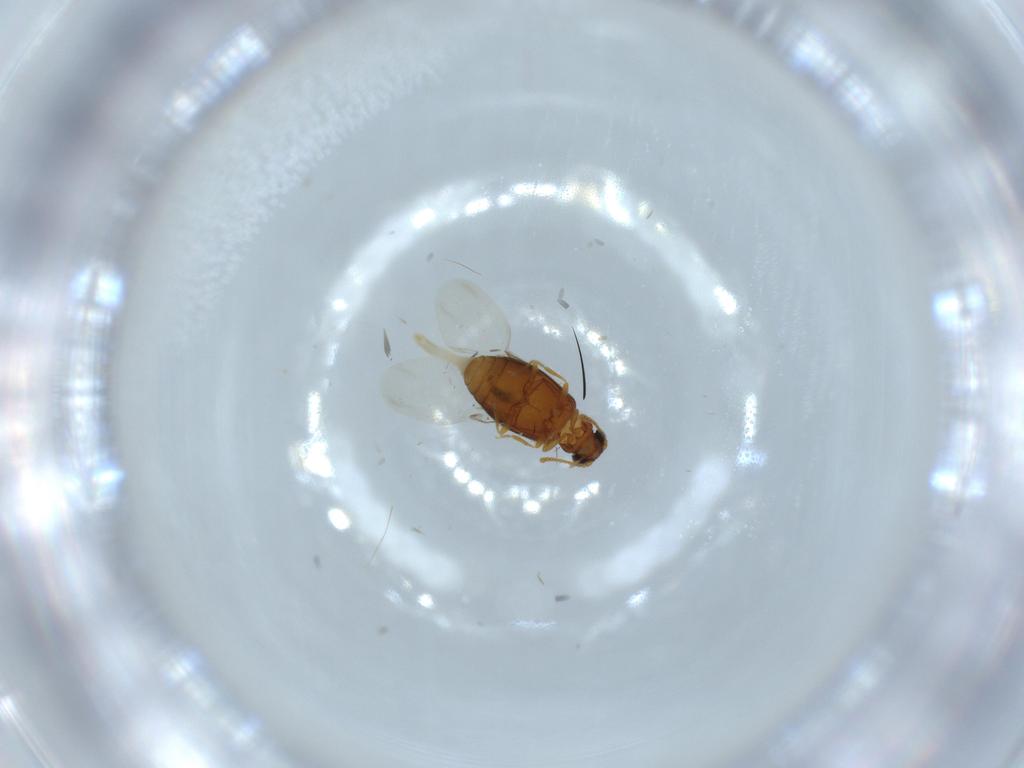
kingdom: Animalia
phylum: Arthropoda
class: Insecta
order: Coleoptera
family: Aderidae
